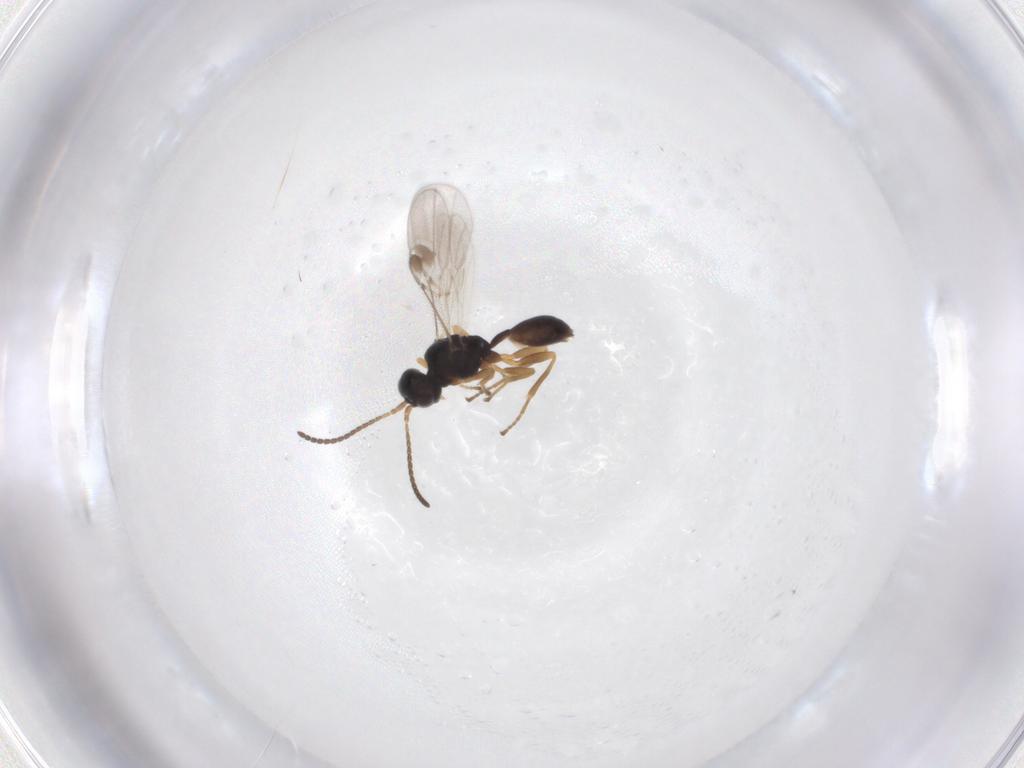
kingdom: Animalia
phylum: Arthropoda
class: Insecta
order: Hymenoptera
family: Braconidae
